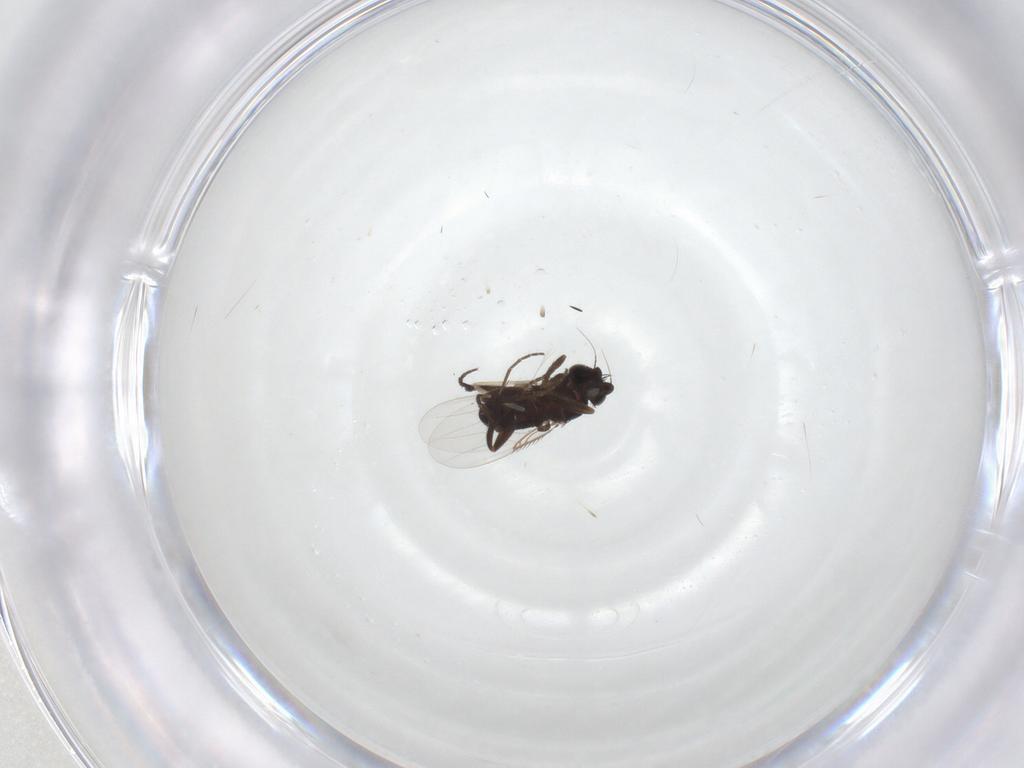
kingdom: Animalia
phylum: Arthropoda
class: Insecta
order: Diptera
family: Phoridae
